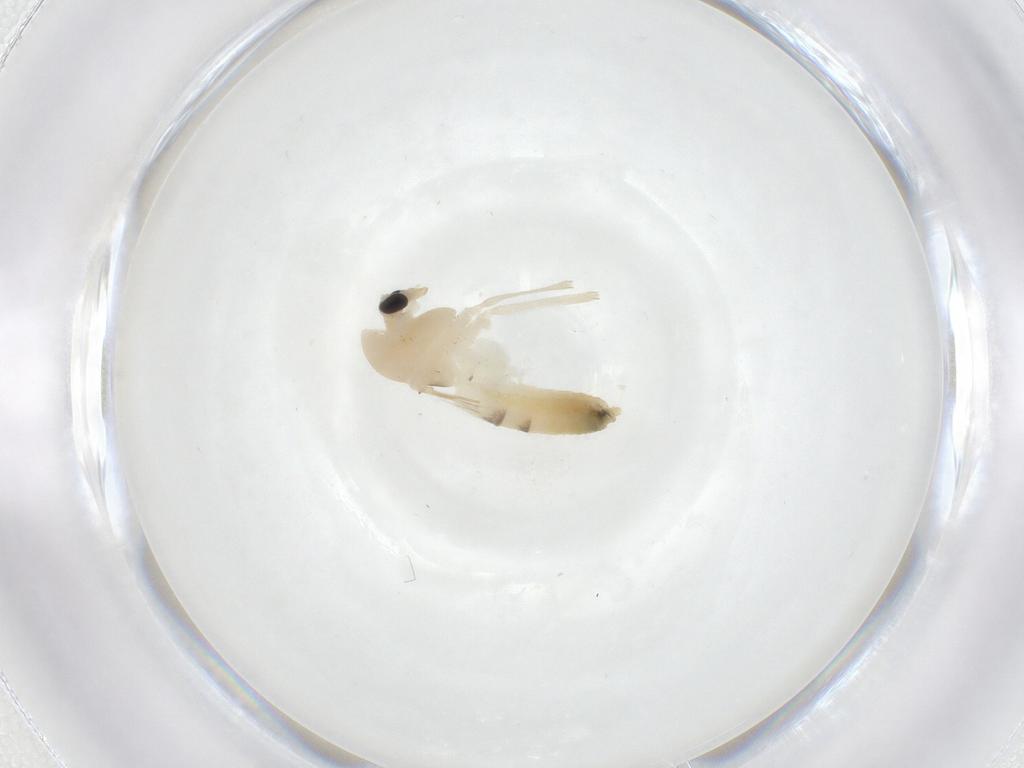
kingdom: Animalia
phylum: Arthropoda
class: Insecta
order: Diptera
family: Chironomidae
